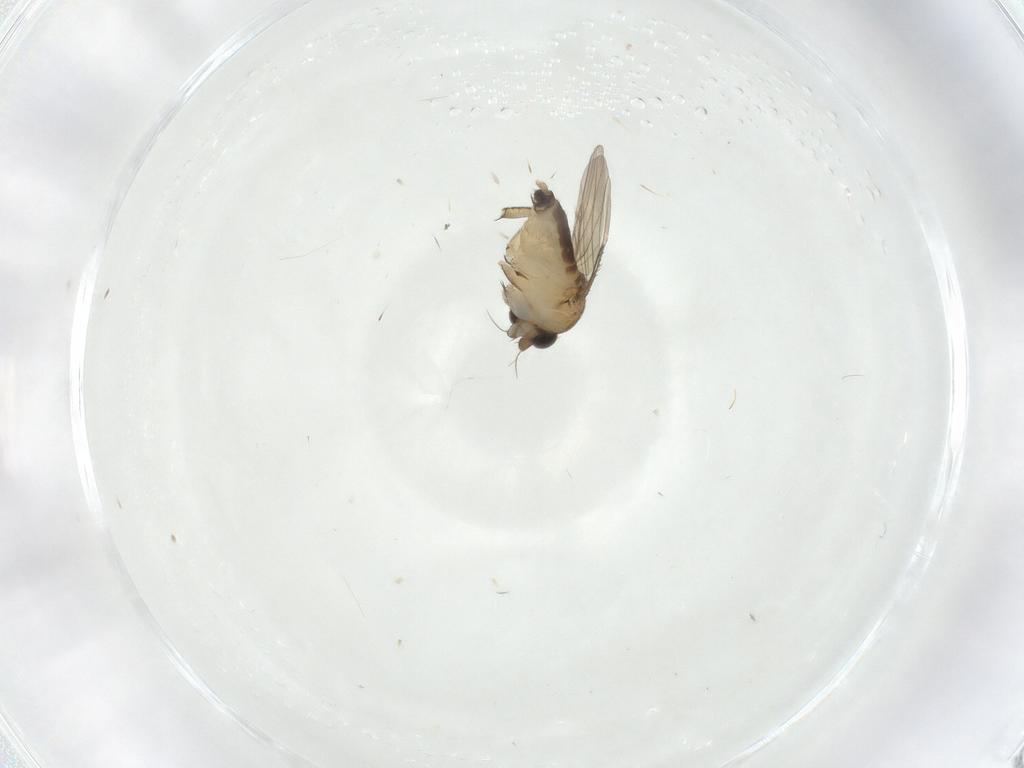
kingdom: Animalia
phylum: Arthropoda
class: Insecta
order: Diptera
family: Phoridae
